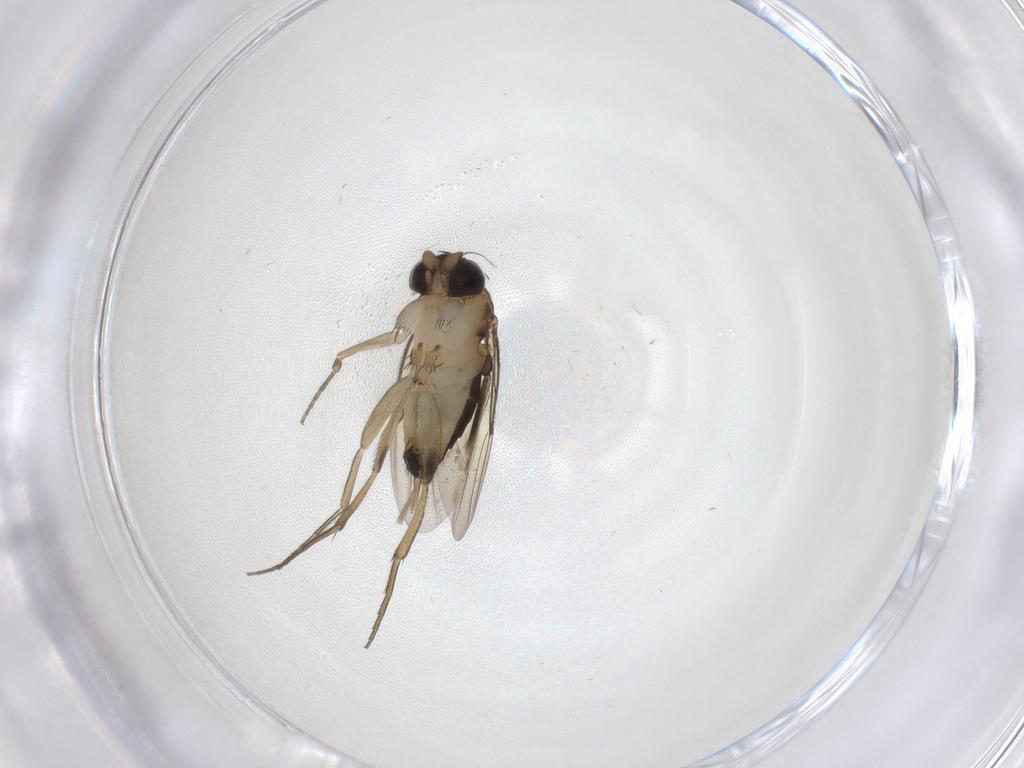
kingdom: Animalia
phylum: Arthropoda
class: Insecta
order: Diptera
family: Phoridae
